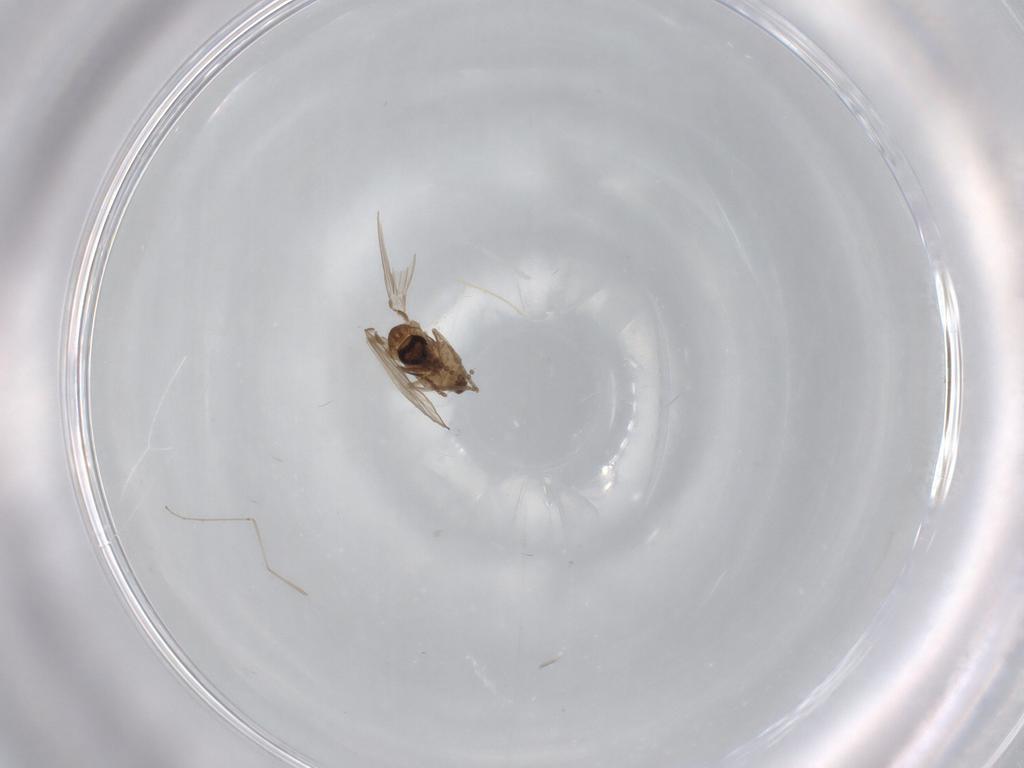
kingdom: Animalia
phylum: Arthropoda
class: Insecta
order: Diptera
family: Psychodidae
